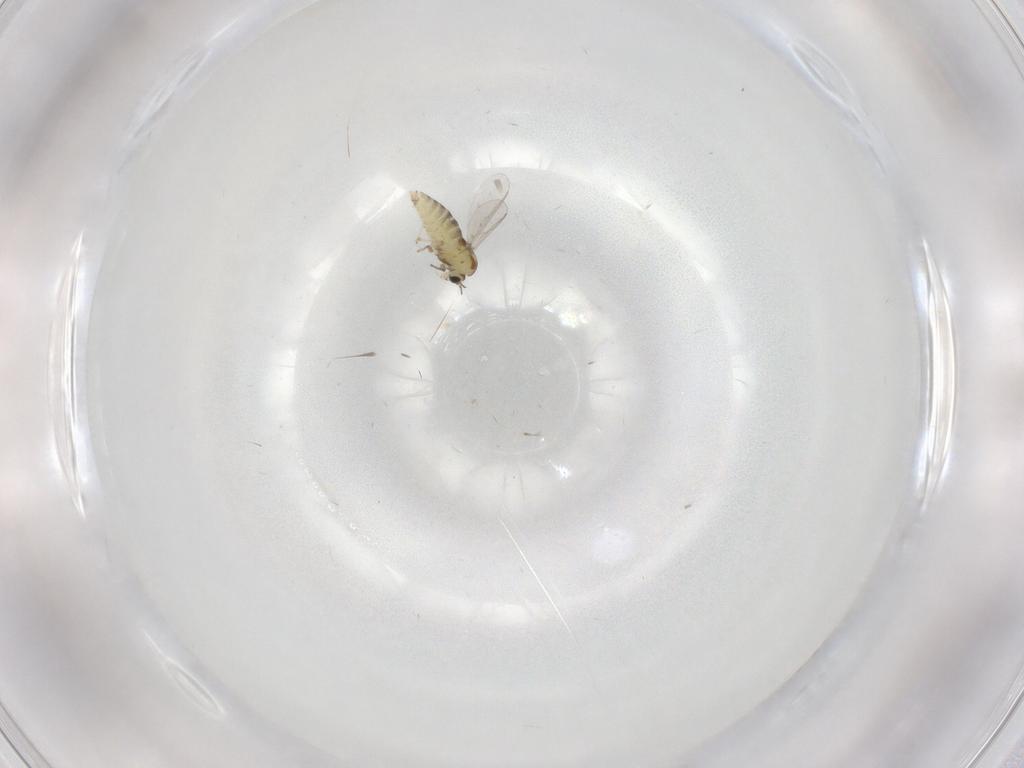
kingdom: Animalia
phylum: Arthropoda
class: Insecta
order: Diptera
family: Chironomidae
